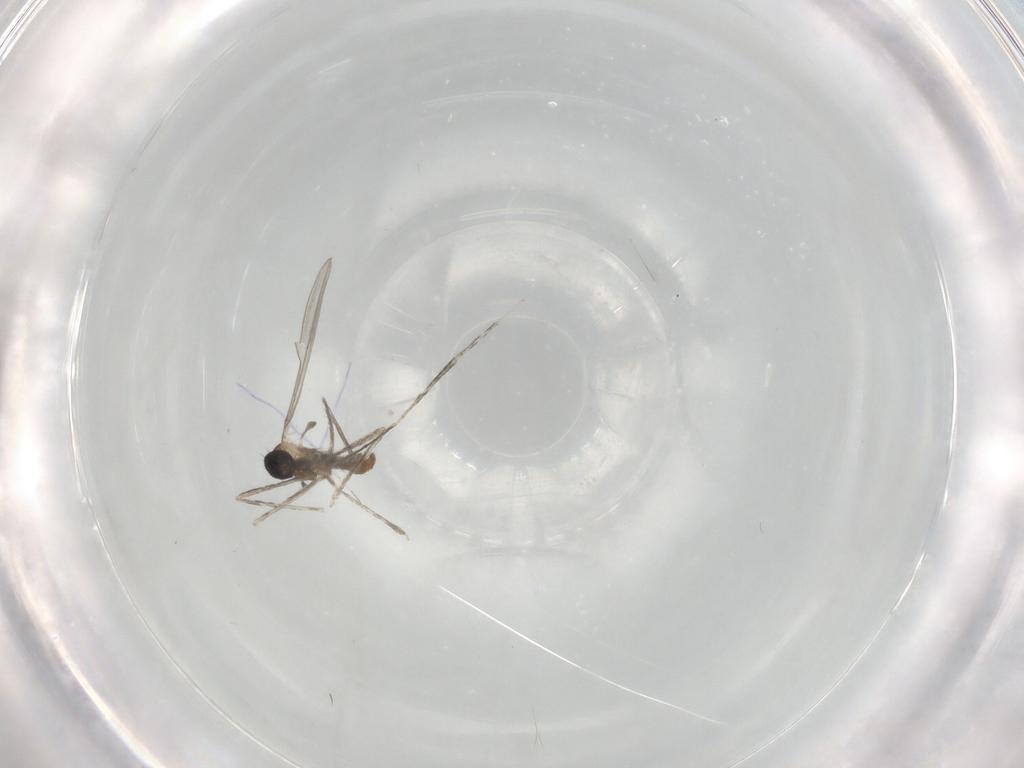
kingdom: Animalia
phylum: Arthropoda
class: Insecta
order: Diptera
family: Cecidomyiidae
